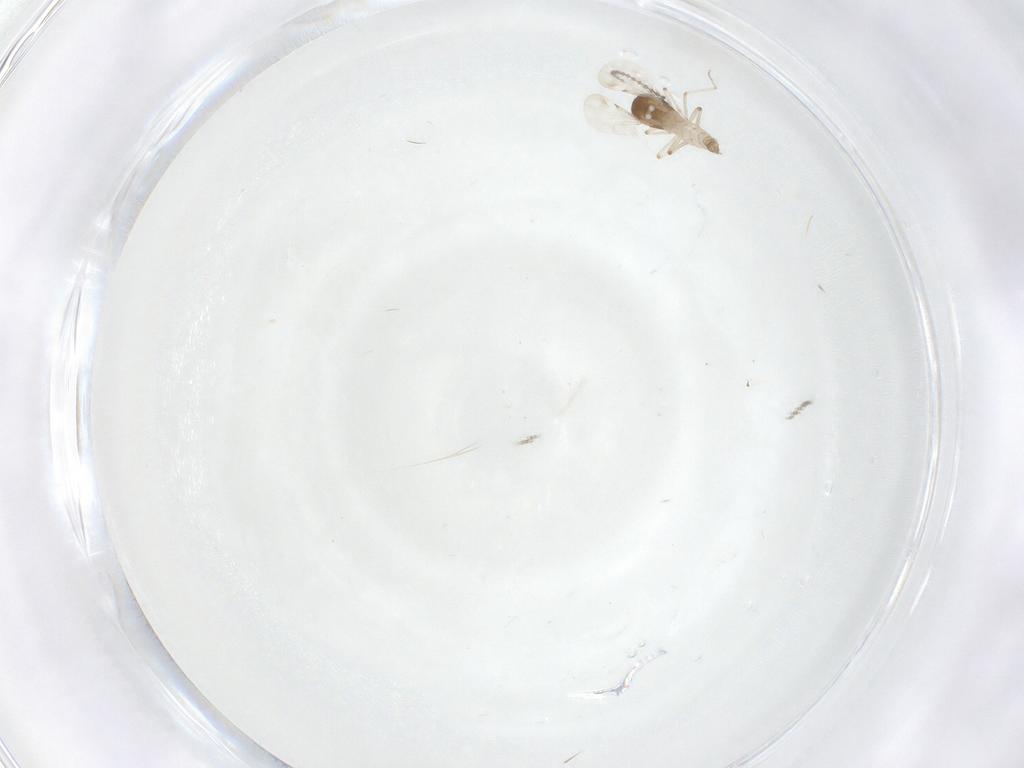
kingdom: Animalia
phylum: Arthropoda
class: Insecta
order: Diptera
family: Ceratopogonidae
